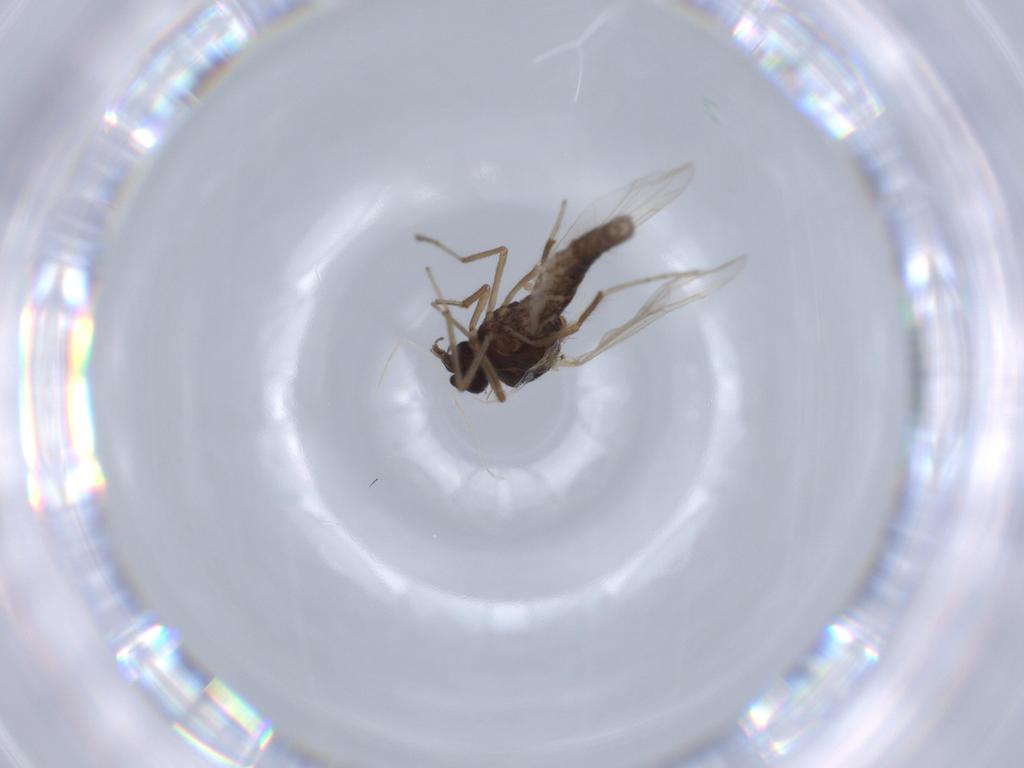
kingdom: Animalia
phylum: Arthropoda
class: Insecta
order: Diptera
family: Ceratopogonidae
